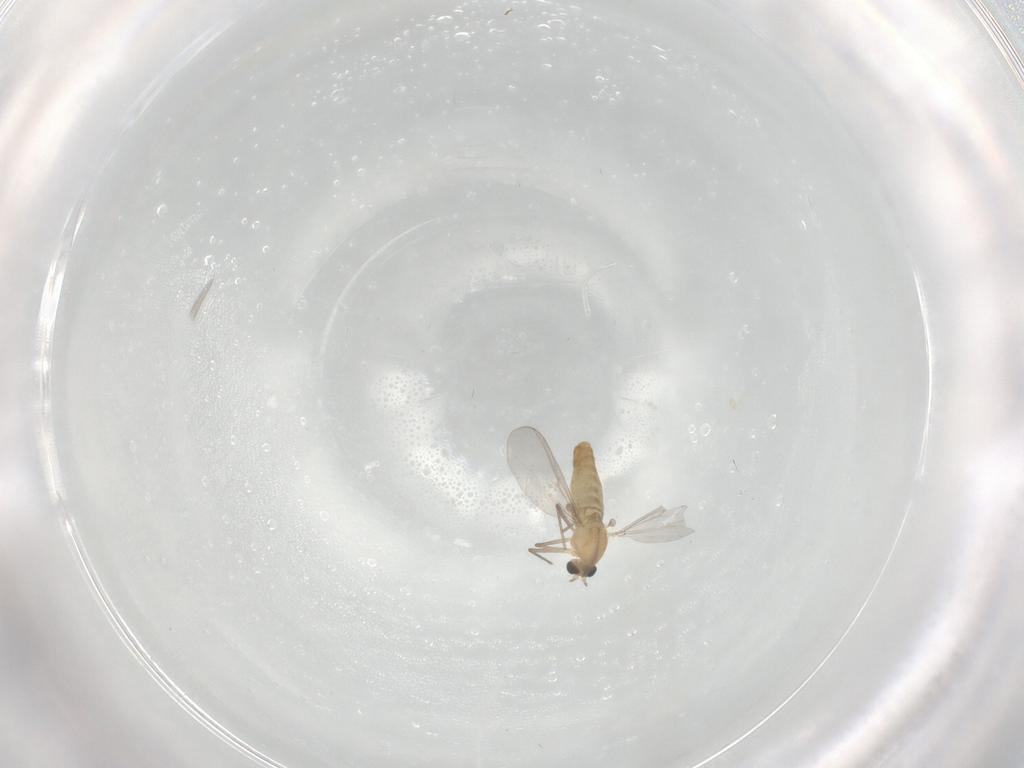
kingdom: Animalia
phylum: Arthropoda
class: Insecta
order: Diptera
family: Chironomidae
